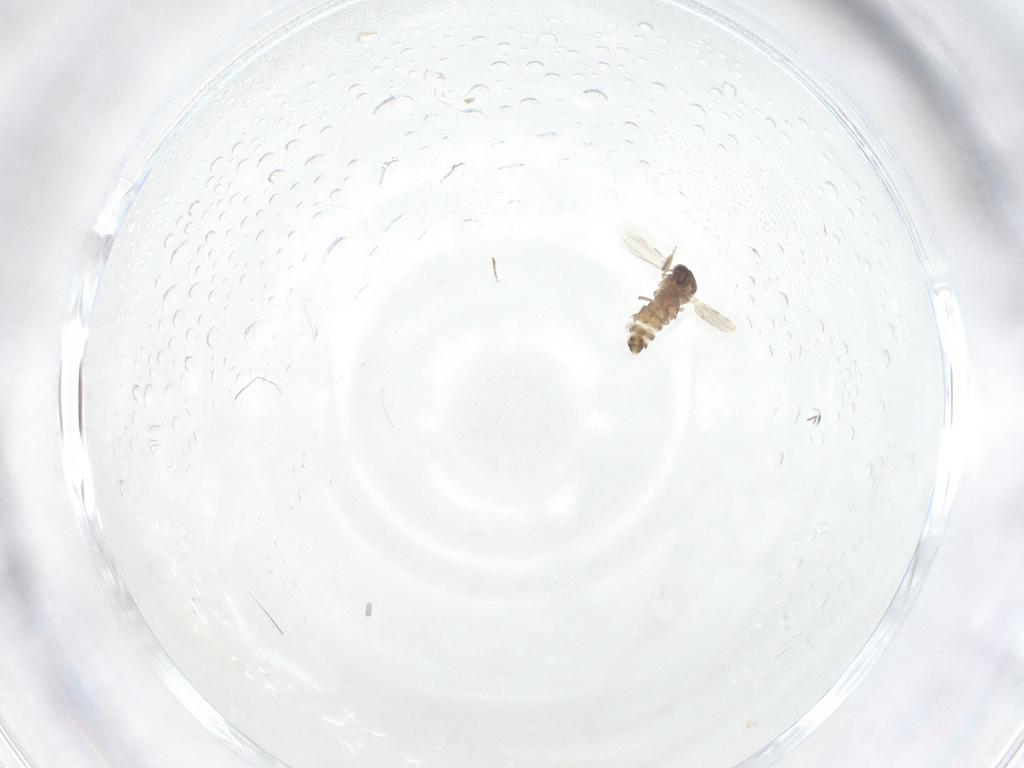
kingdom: Animalia
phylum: Arthropoda
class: Insecta
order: Diptera
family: Ceratopogonidae
